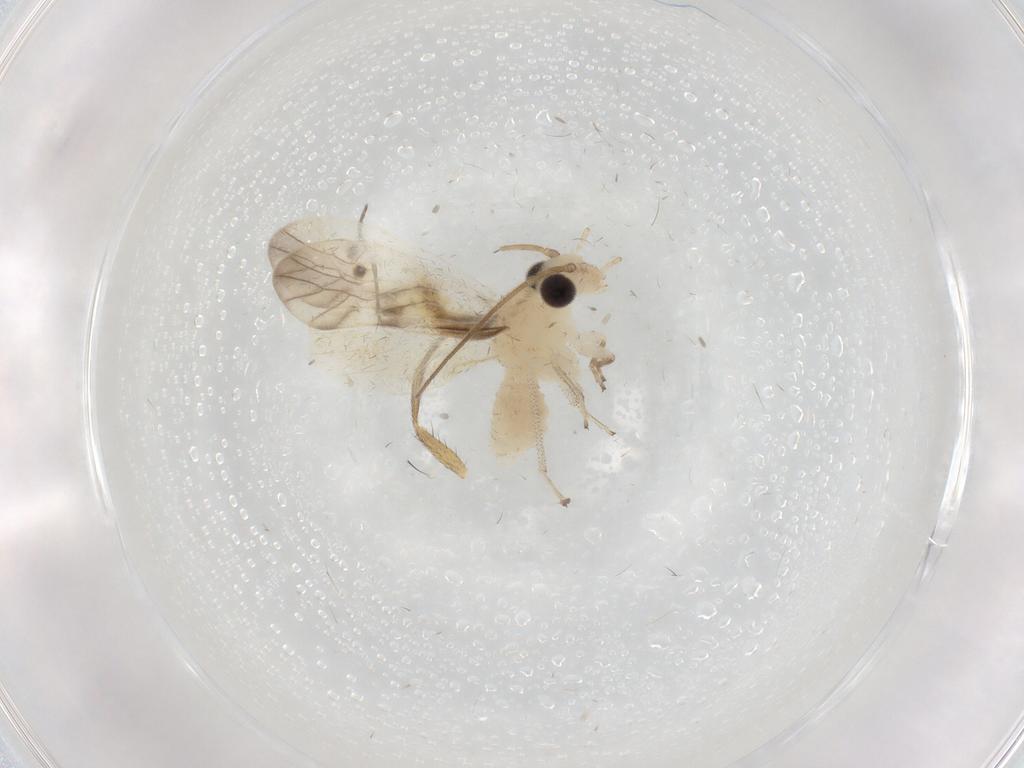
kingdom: Animalia
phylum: Arthropoda
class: Insecta
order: Psocodea
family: Caeciliusidae
